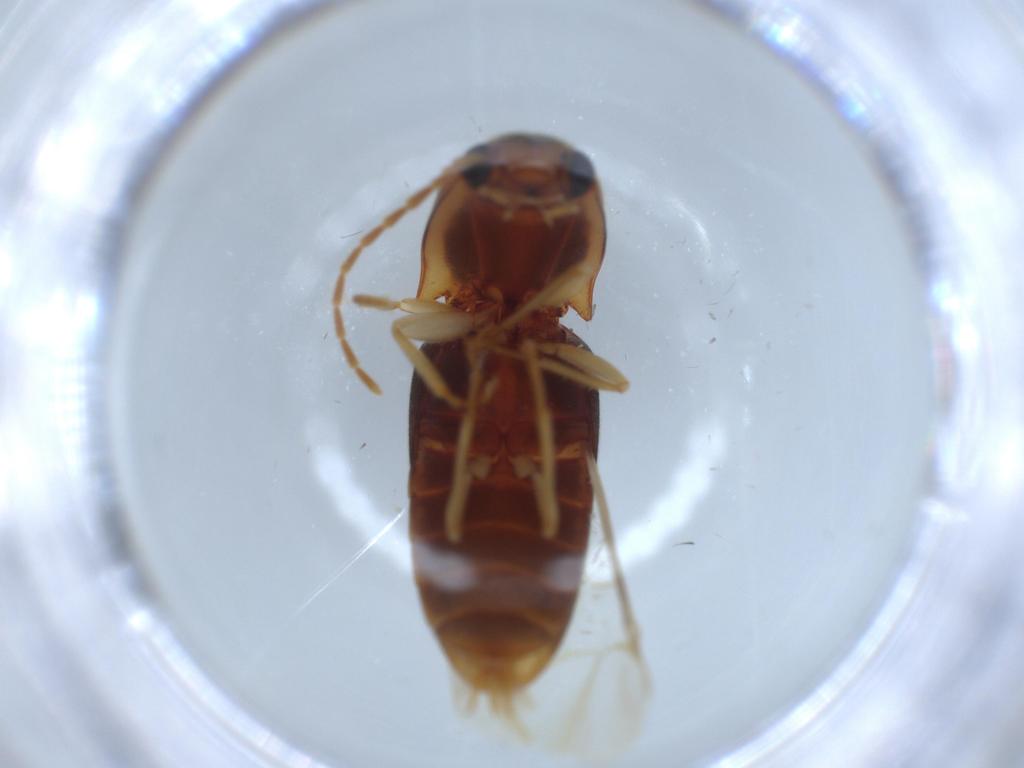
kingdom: Animalia
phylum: Arthropoda
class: Insecta
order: Coleoptera
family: Brentidae
